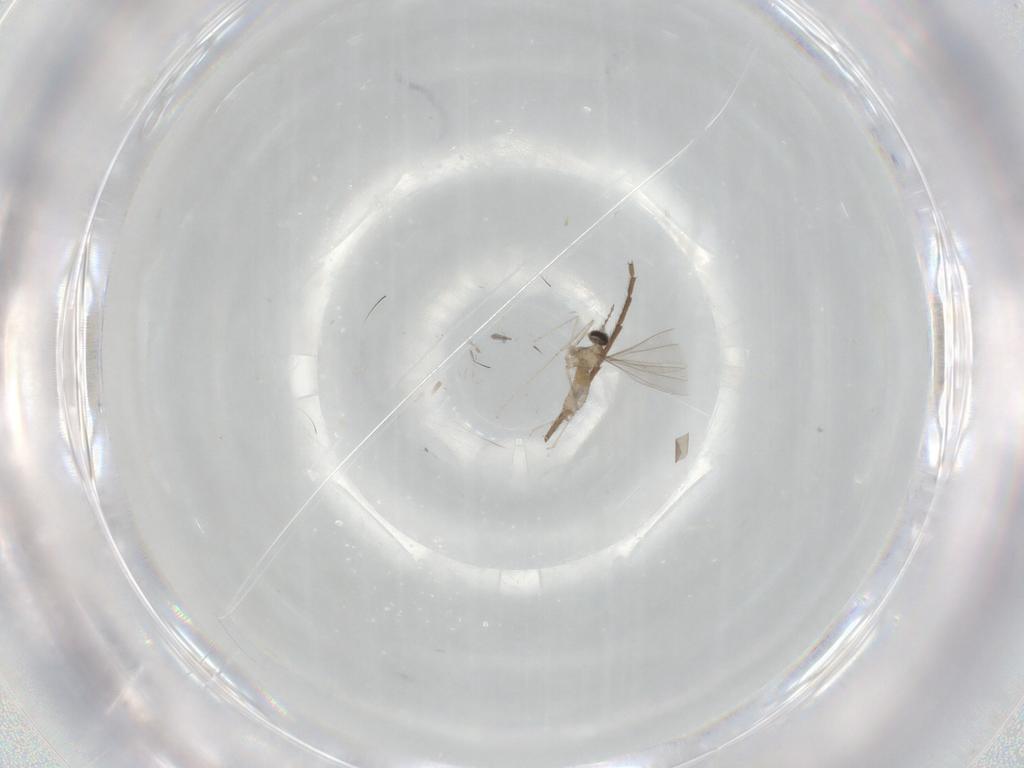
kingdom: Animalia
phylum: Arthropoda
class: Insecta
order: Diptera
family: Chironomidae
